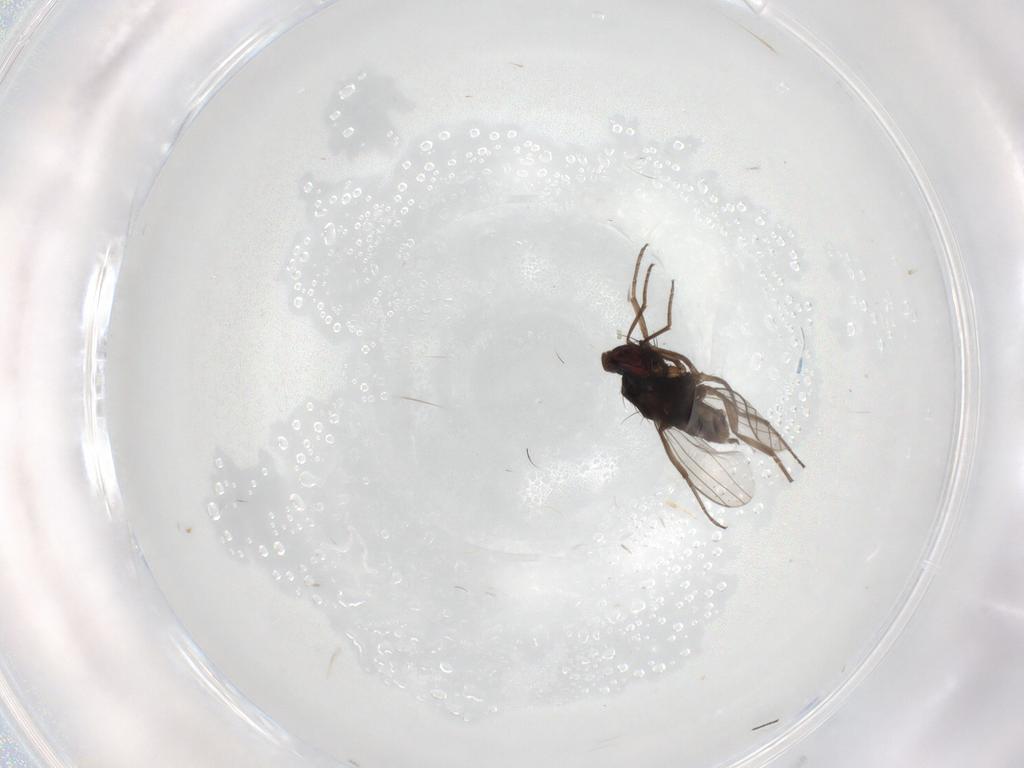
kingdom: Animalia
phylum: Arthropoda
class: Insecta
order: Diptera
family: Dolichopodidae
